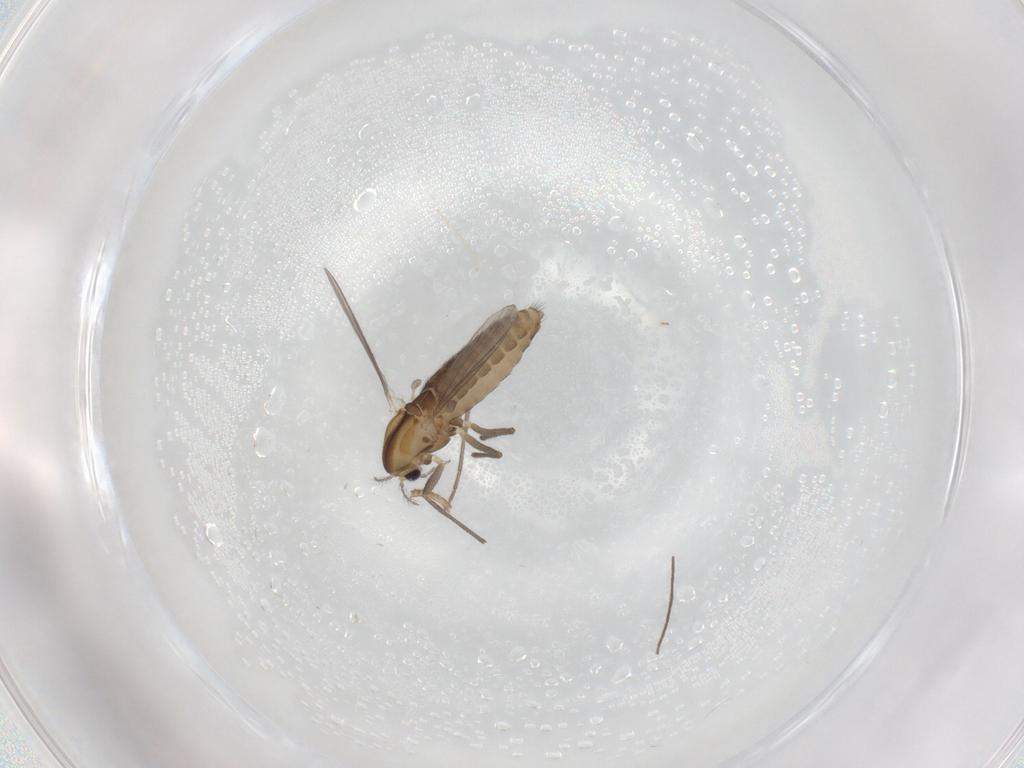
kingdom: Animalia
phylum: Arthropoda
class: Insecta
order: Diptera
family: Chironomidae
